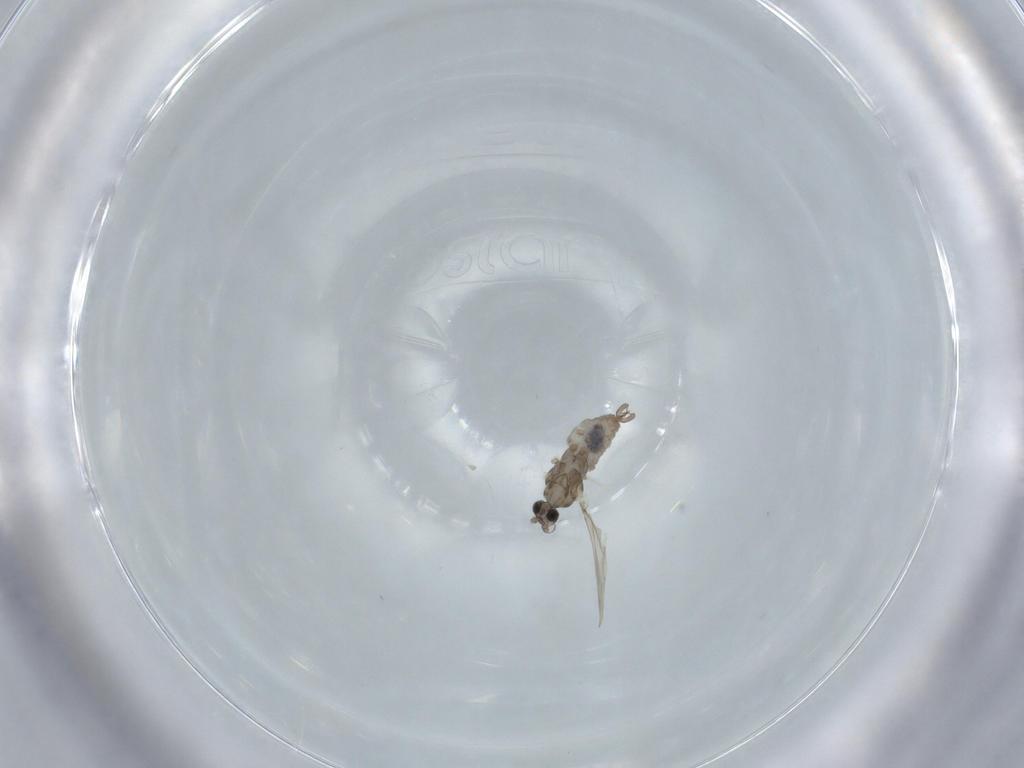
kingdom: Animalia
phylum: Arthropoda
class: Insecta
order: Diptera
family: Cecidomyiidae
